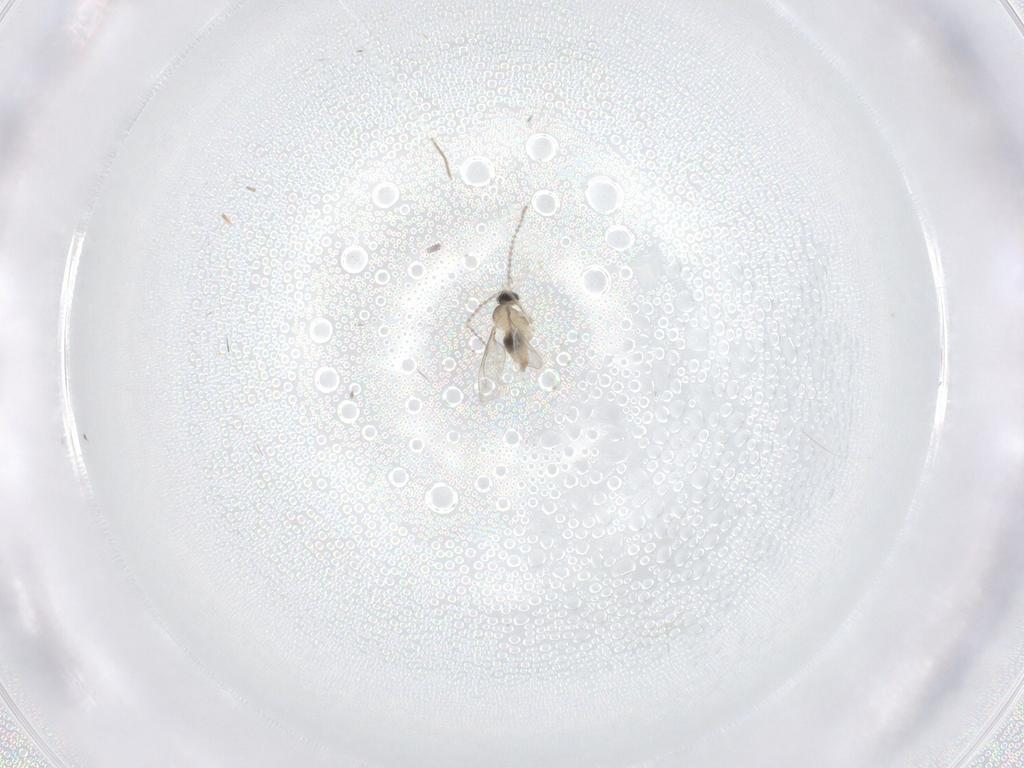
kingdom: Animalia
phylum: Arthropoda
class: Insecta
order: Diptera
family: Cecidomyiidae
